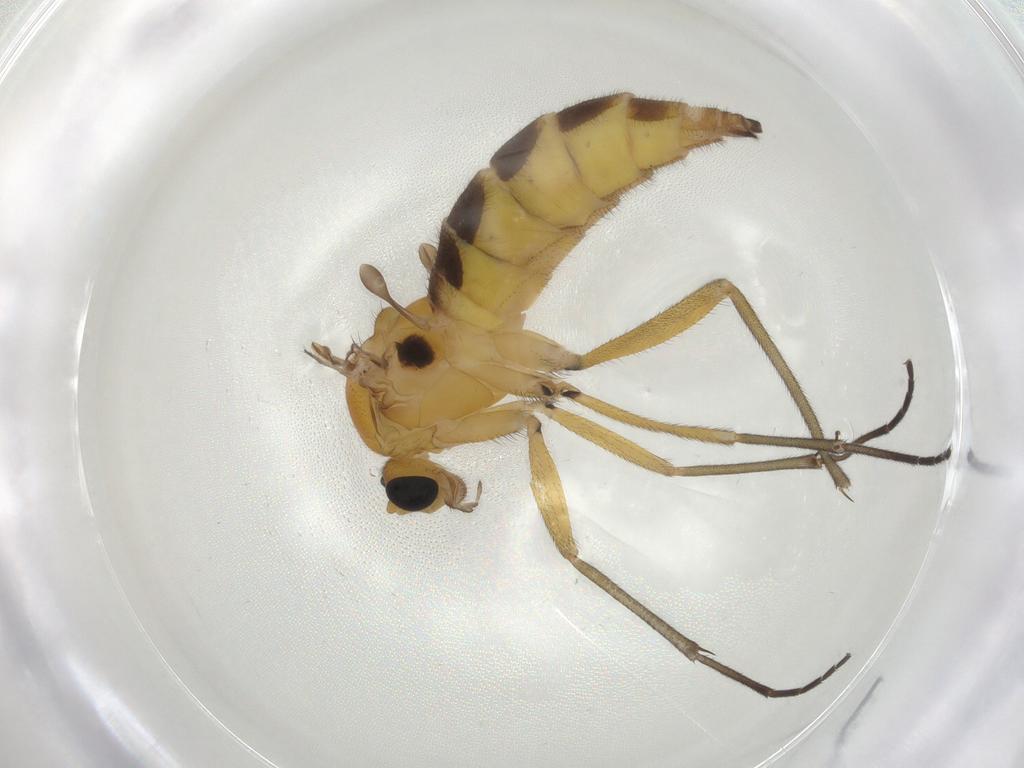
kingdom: Animalia
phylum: Arthropoda
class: Insecta
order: Diptera
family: Sciaridae
